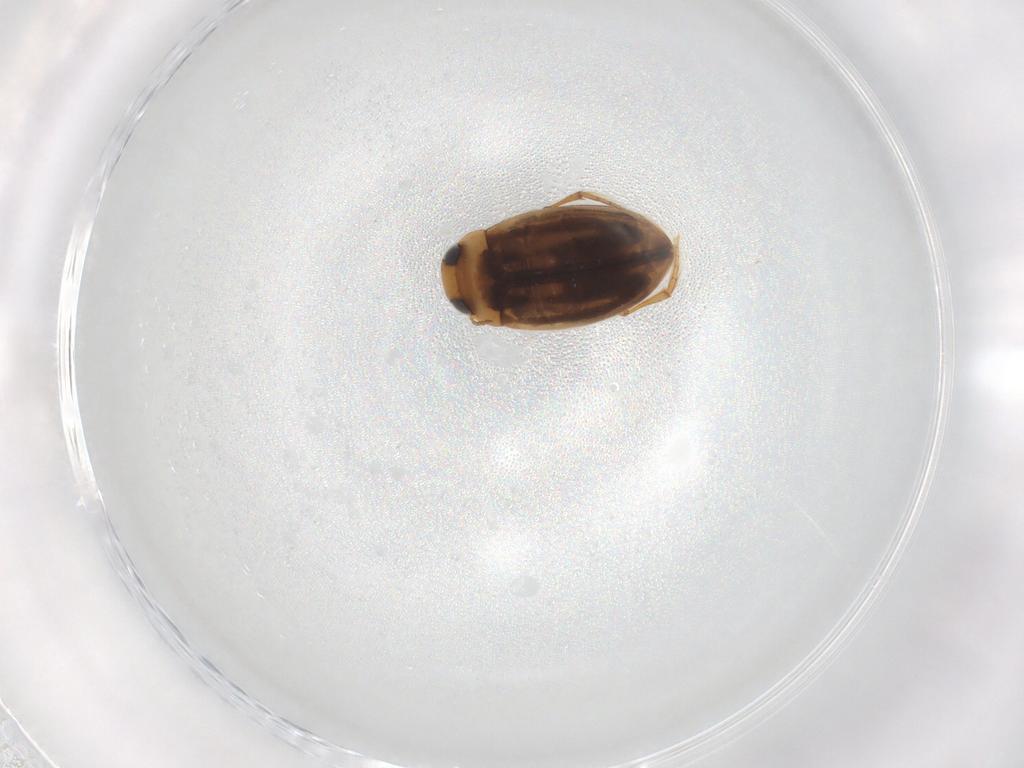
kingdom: Animalia
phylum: Arthropoda
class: Insecta
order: Coleoptera
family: Dytiscidae
